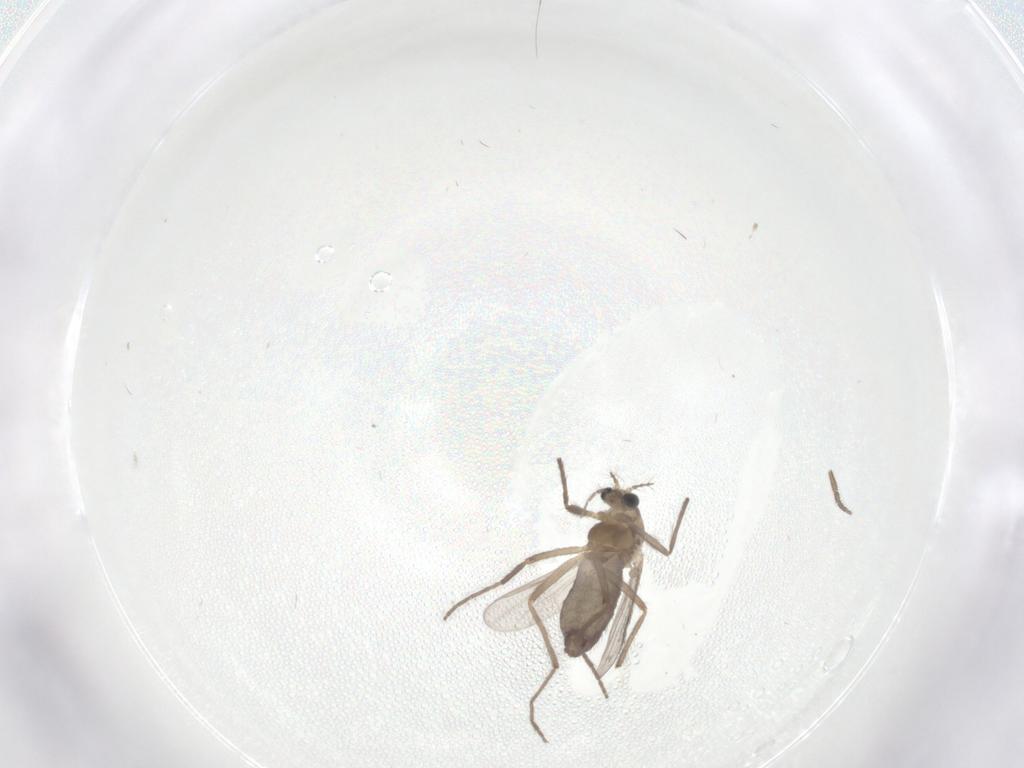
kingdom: Animalia
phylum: Arthropoda
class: Insecta
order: Diptera
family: Chironomidae
